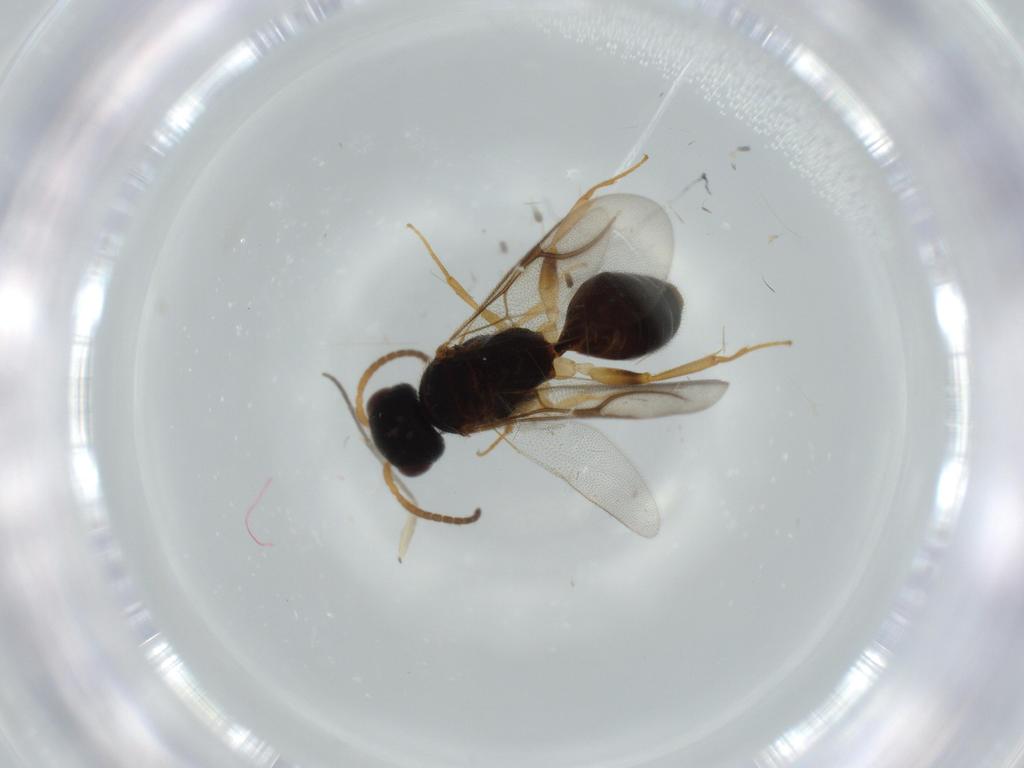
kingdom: Animalia
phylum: Arthropoda
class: Insecta
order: Hymenoptera
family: Bethylidae
